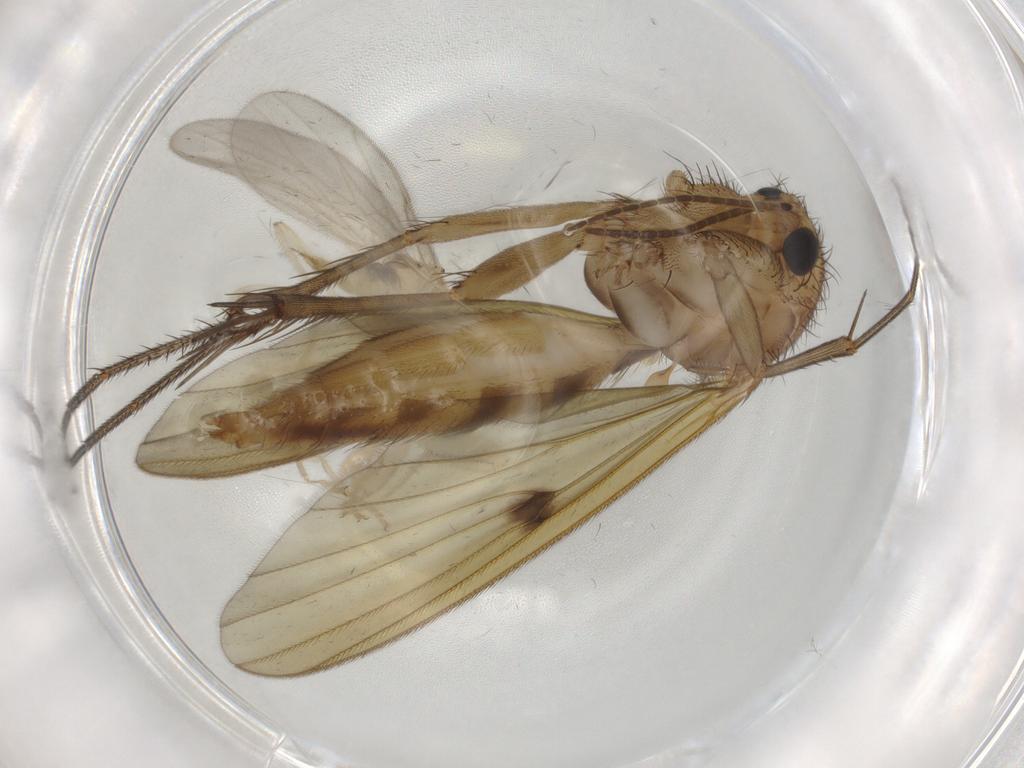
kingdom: Animalia
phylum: Arthropoda
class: Insecta
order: Diptera
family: Mycetophilidae
